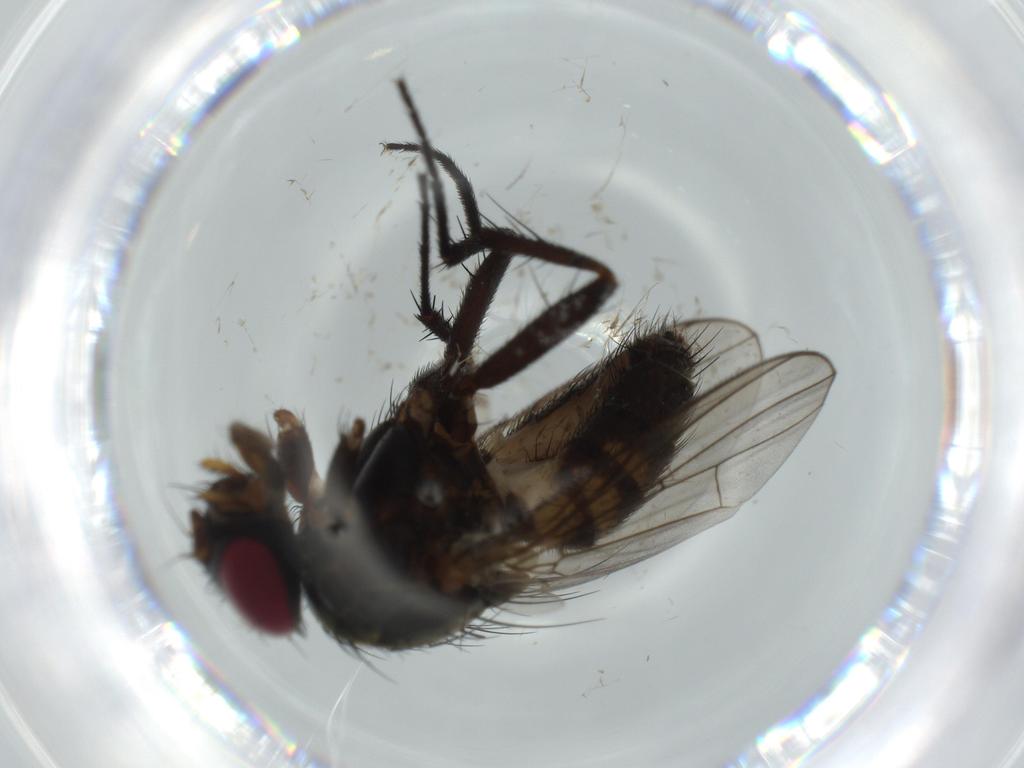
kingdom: Animalia
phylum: Arthropoda
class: Insecta
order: Diptera
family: Fannia
